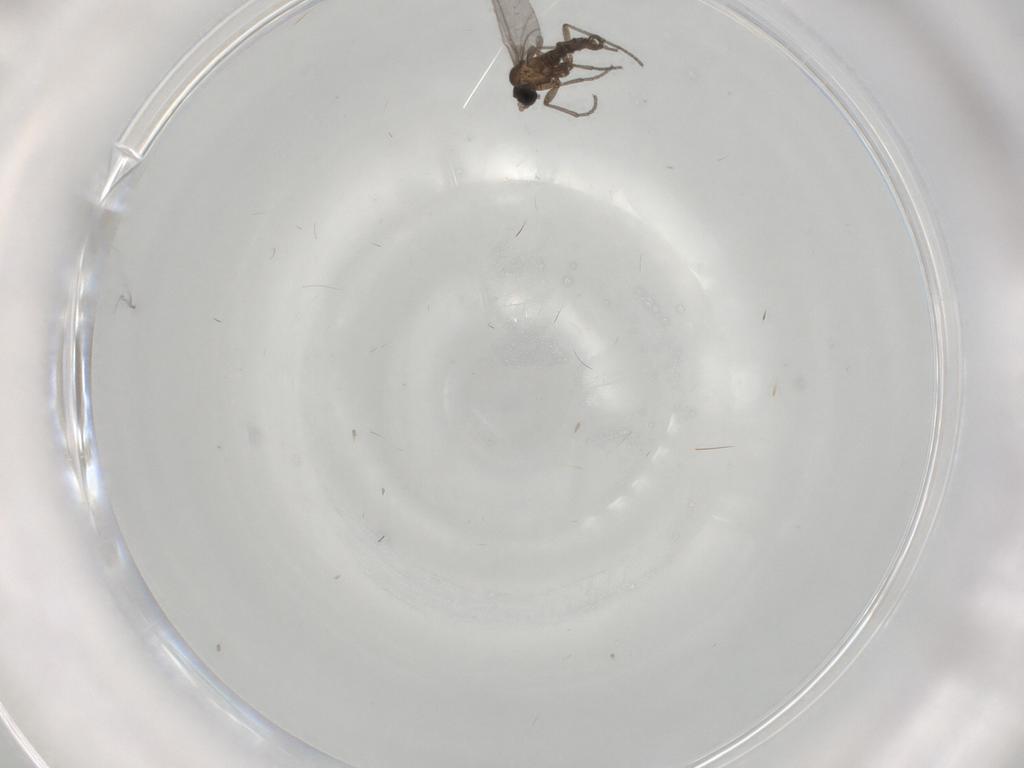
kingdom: Animalia
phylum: Arthropoda
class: Insecta
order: Diptera
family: Sciaridae
